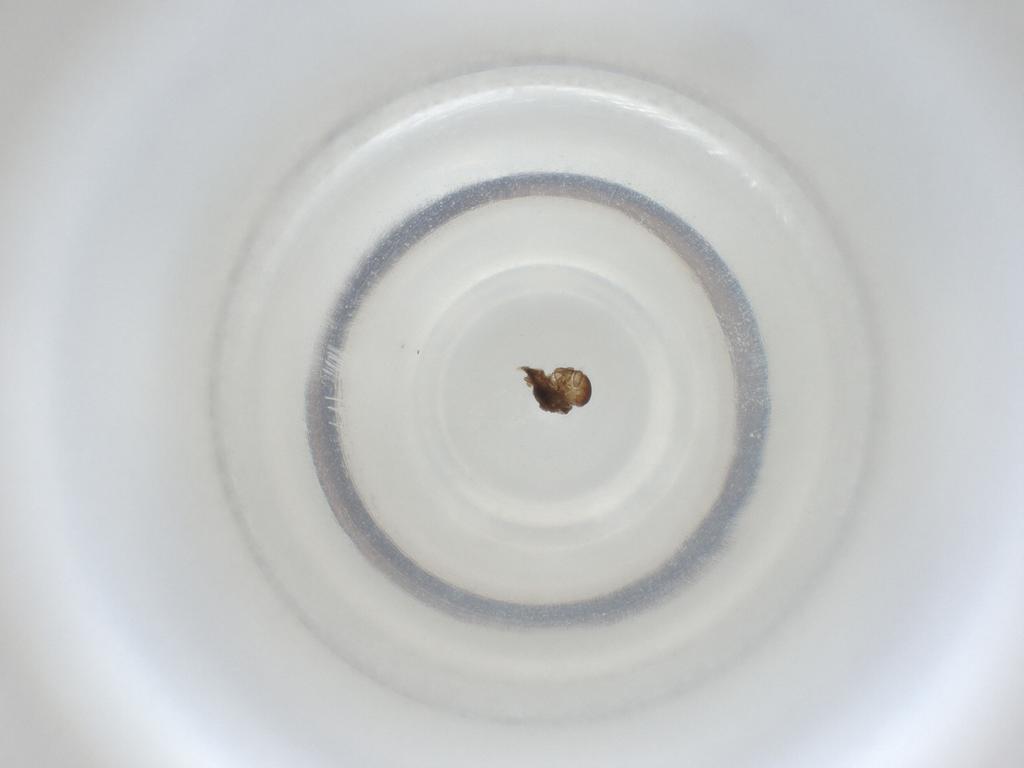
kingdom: Animalia
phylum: Arthropoda
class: Insecta
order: Diptera
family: Cecidomyiidae
